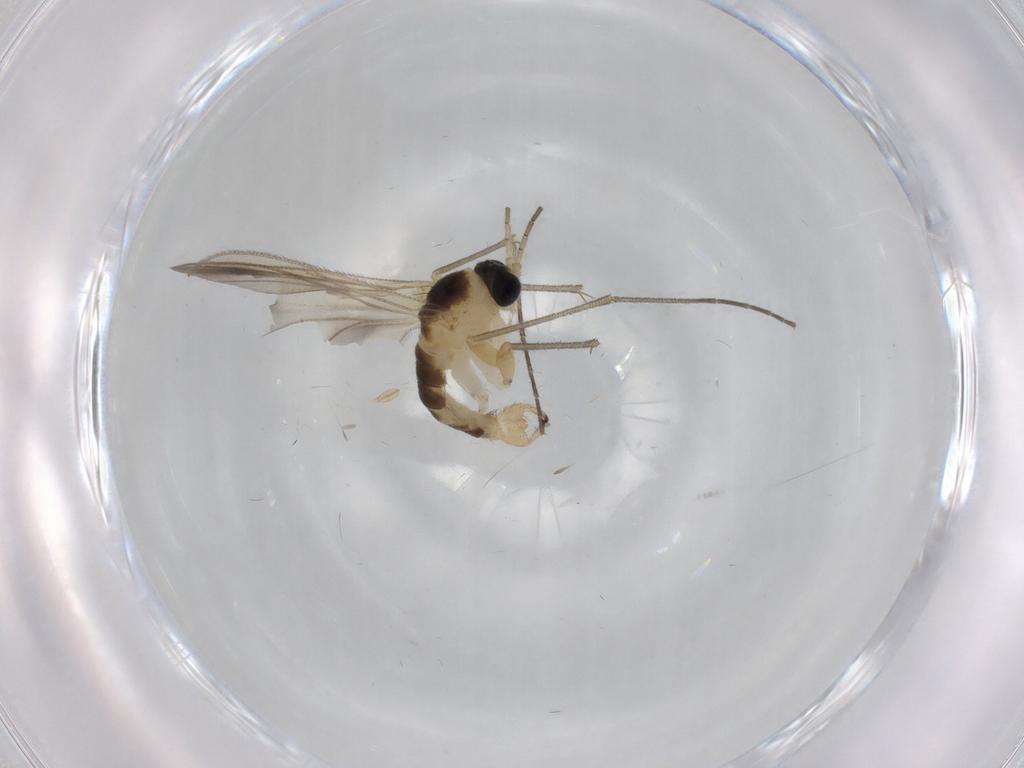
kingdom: Animalia
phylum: Arthropoda
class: Insecta
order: Diptera
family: Sciaridae
